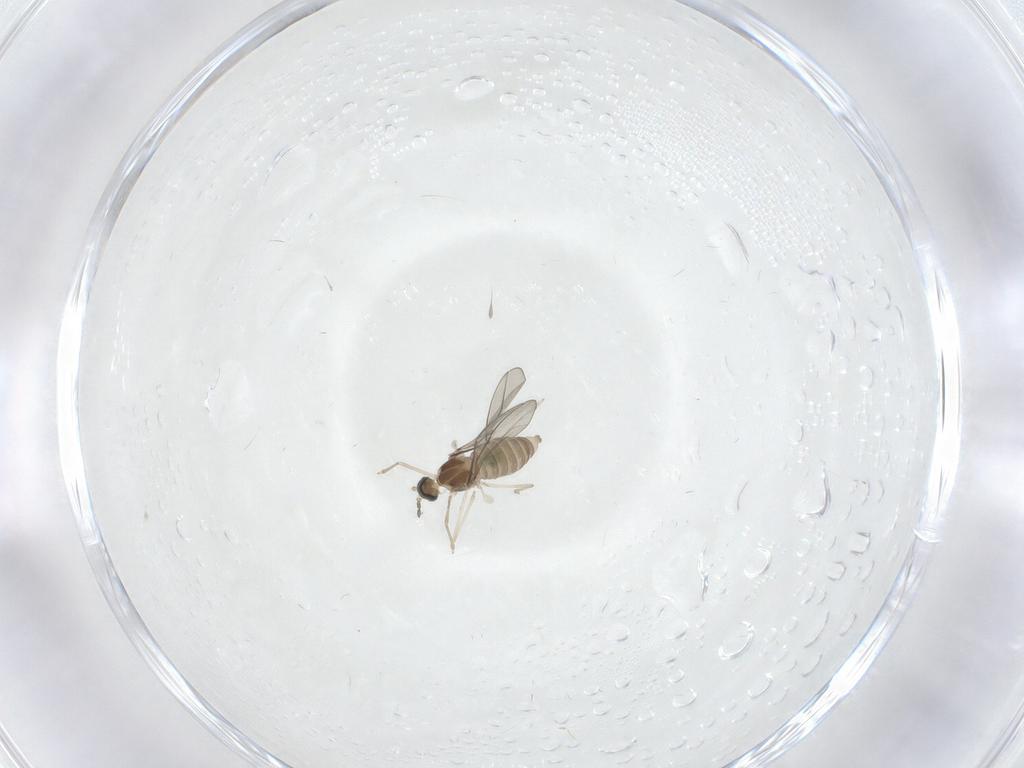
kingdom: Animalia
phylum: Arthropoda
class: Insecta
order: Diptera
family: Cecidomyiidae
